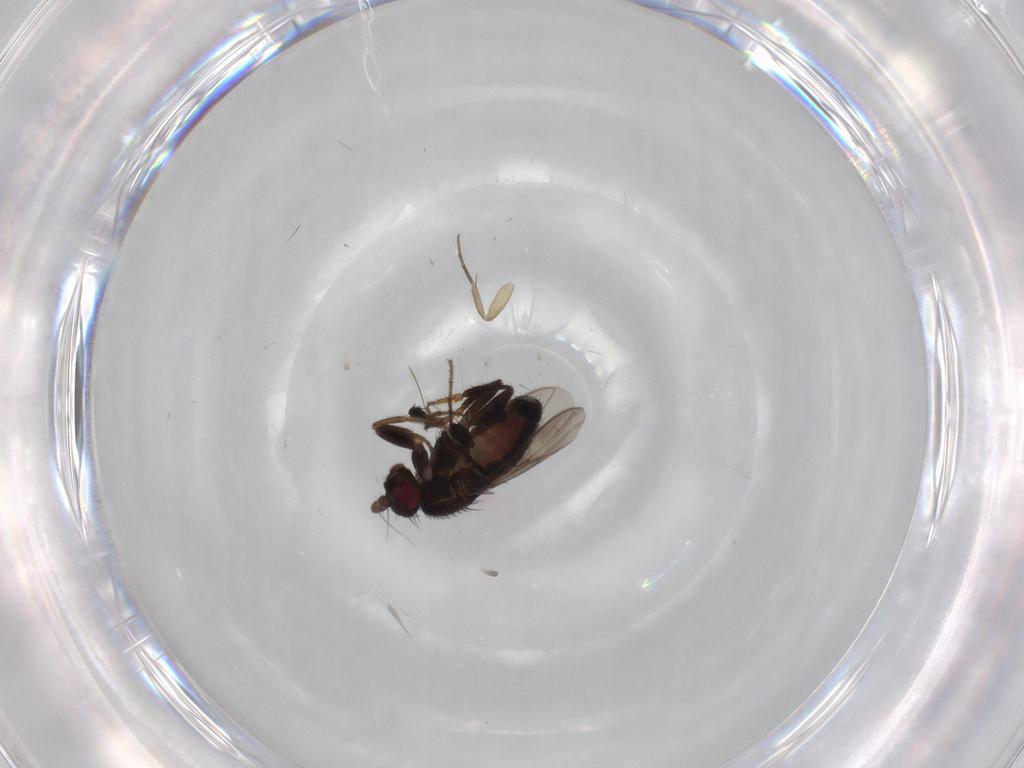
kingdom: Animalia
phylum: Arthropoda
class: Insecta
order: Diptera
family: Sphaeroceridae
